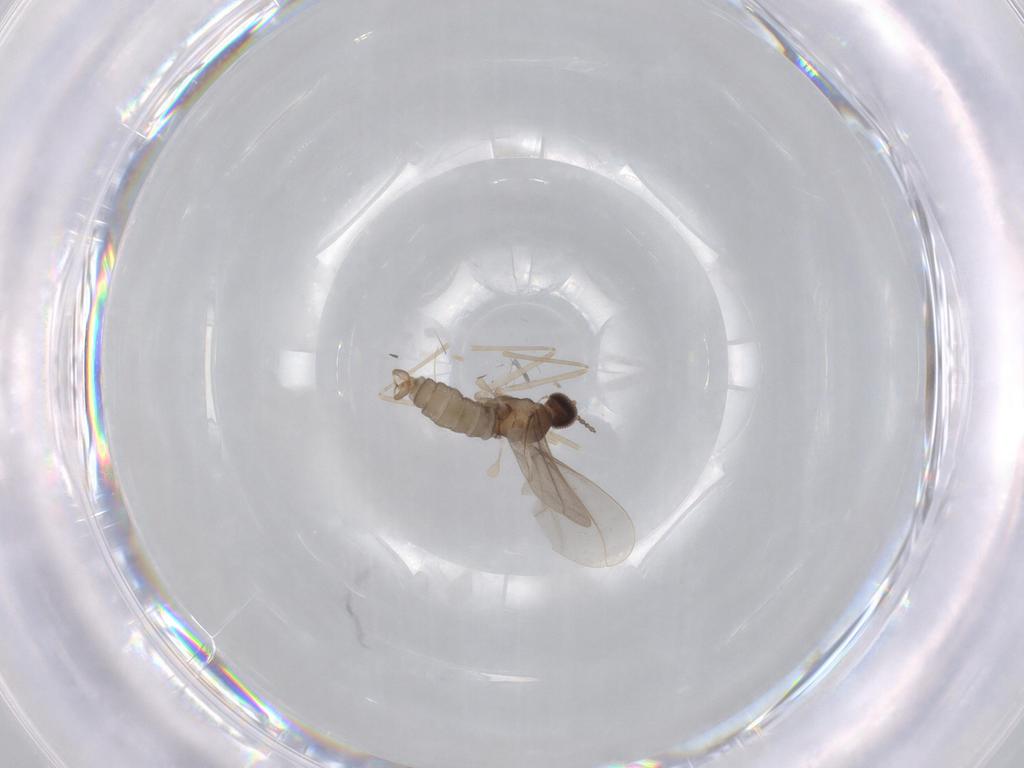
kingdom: Animalia
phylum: Arthropoda
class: Insecta
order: Diptera
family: Cecidomyiidae
